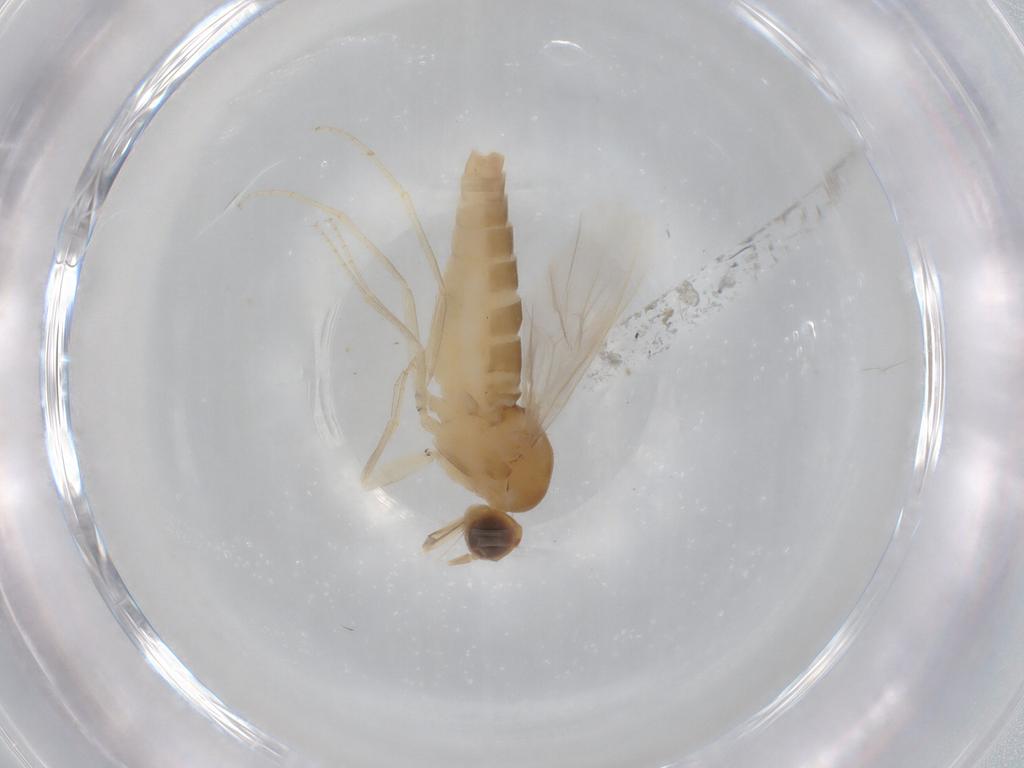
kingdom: Animalia
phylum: Arthropoda
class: Insecta
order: Diptera
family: Scenopinidae
